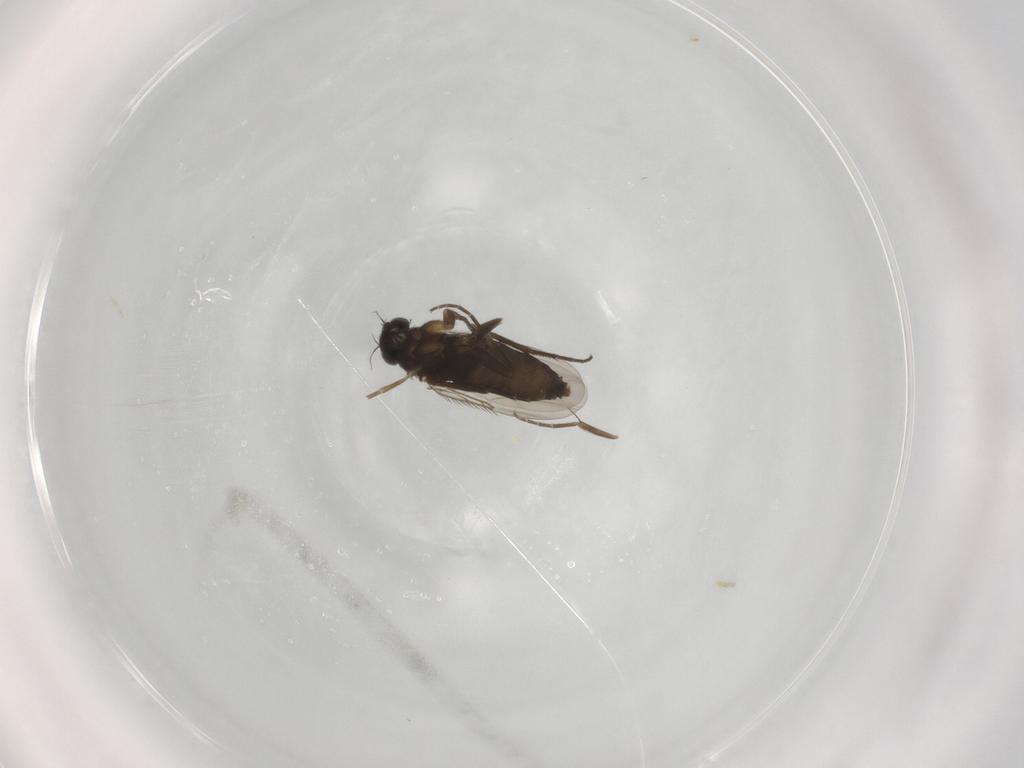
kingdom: Animalia
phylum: Arthropoda
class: Insecta
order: Diptera
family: Phoridae
